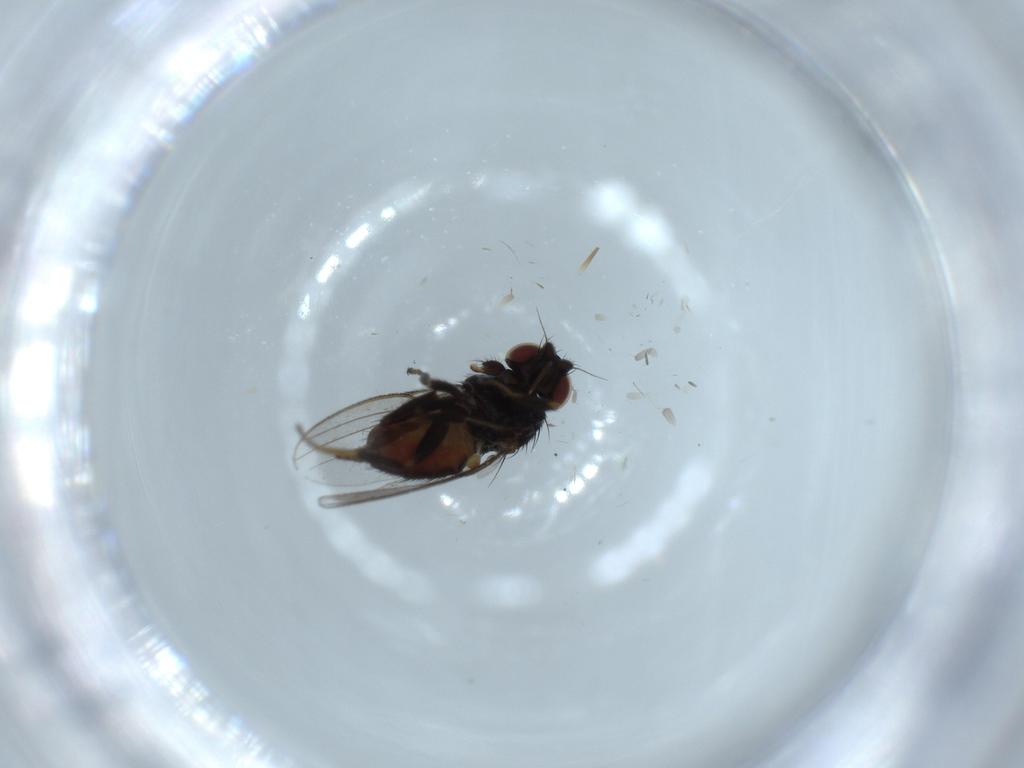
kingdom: Animalia
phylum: Arthropoda
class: Insecta
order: Diptera
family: Milichiidae
